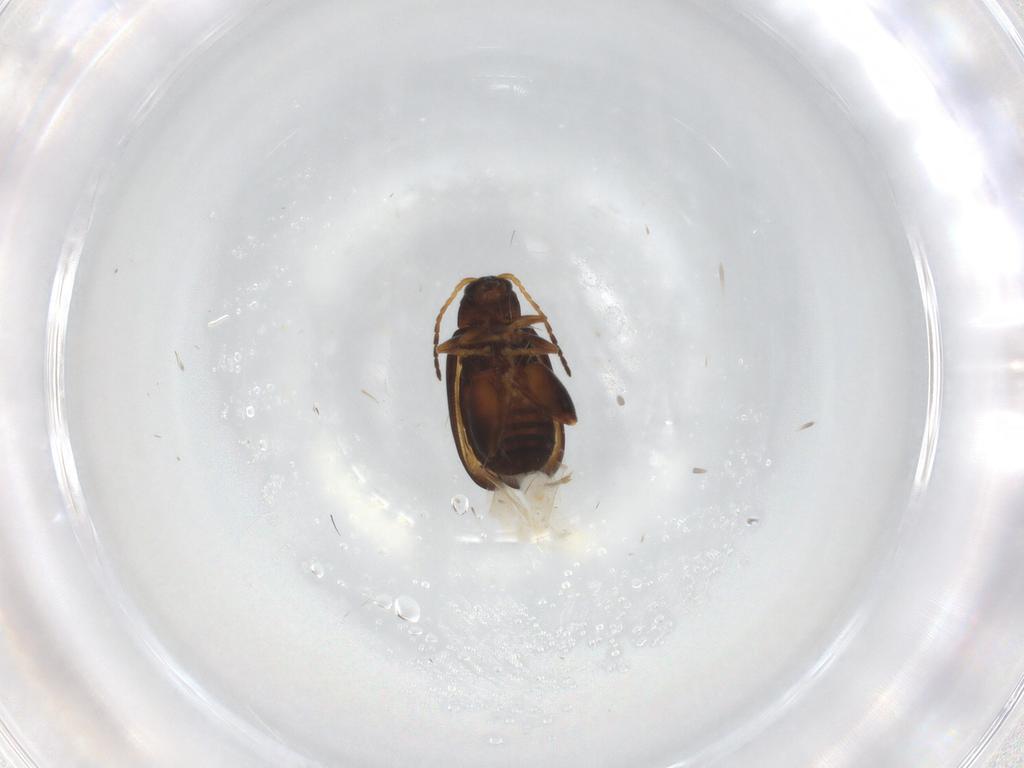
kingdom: Animalia
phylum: Arthropoda
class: Insecta
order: Coleoptera
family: Chrysomelidae
